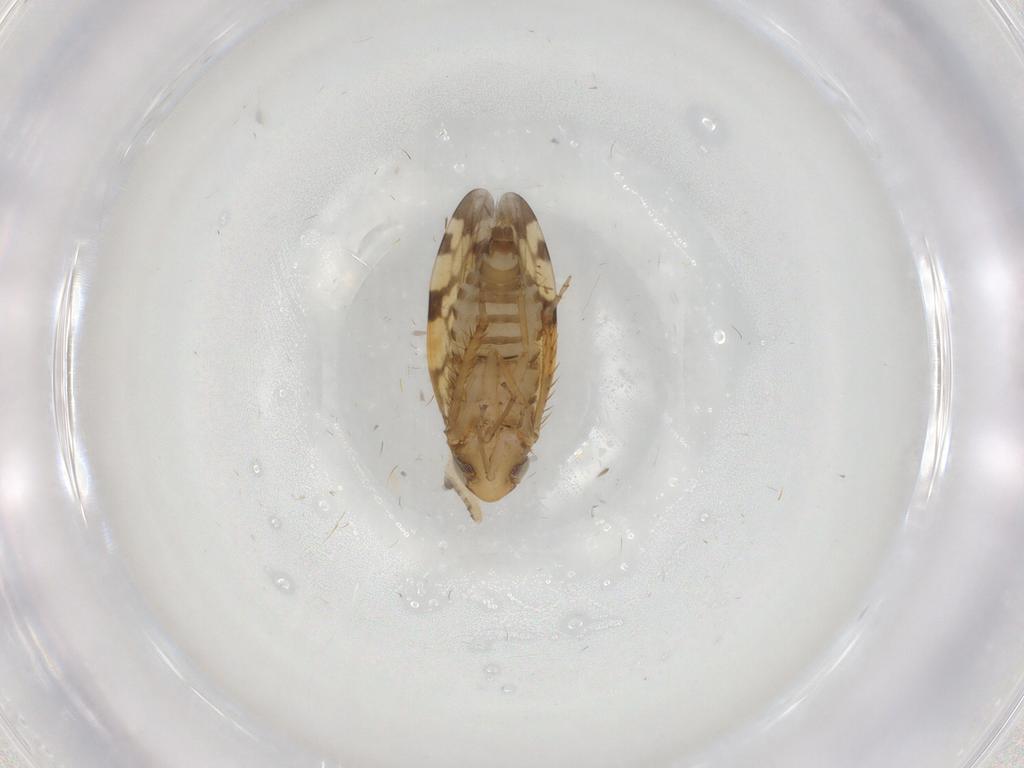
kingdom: Animalia
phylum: Arthropoda
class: Insecta
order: Hemiptera
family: Cicadellidae
